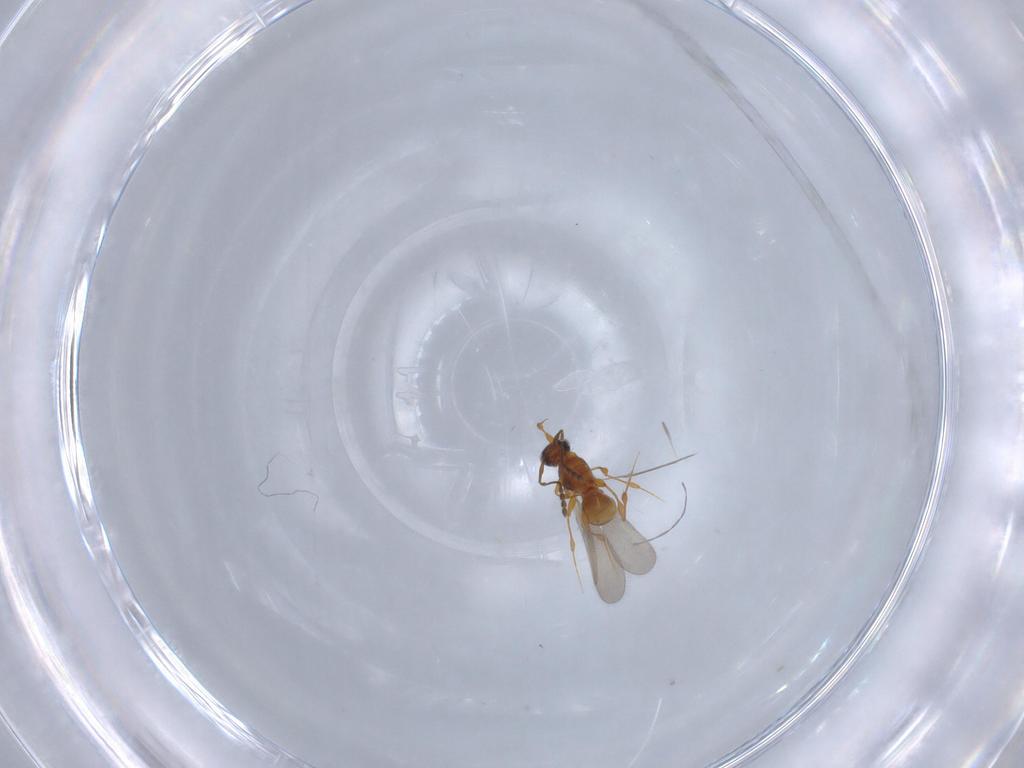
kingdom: Animalia
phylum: Arthropoda
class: Insecta
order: Hymenoptera
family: Platygastridae
